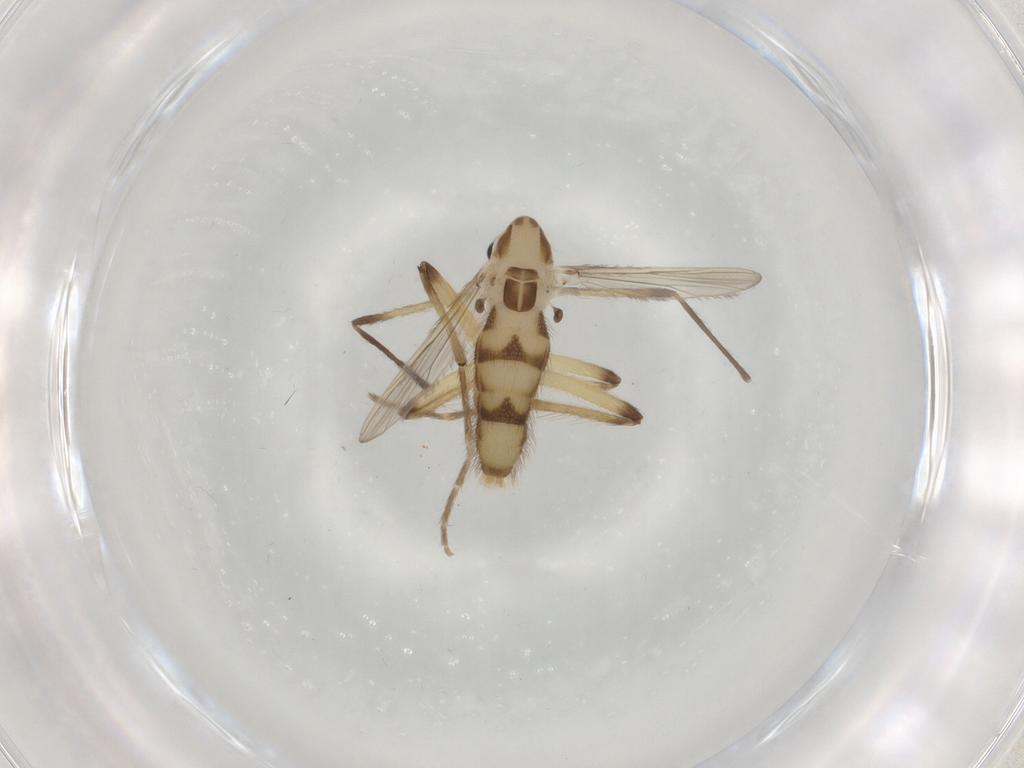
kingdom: Animalia
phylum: Arthropoda
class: Insecta
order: Diptera
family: Chironomidae
